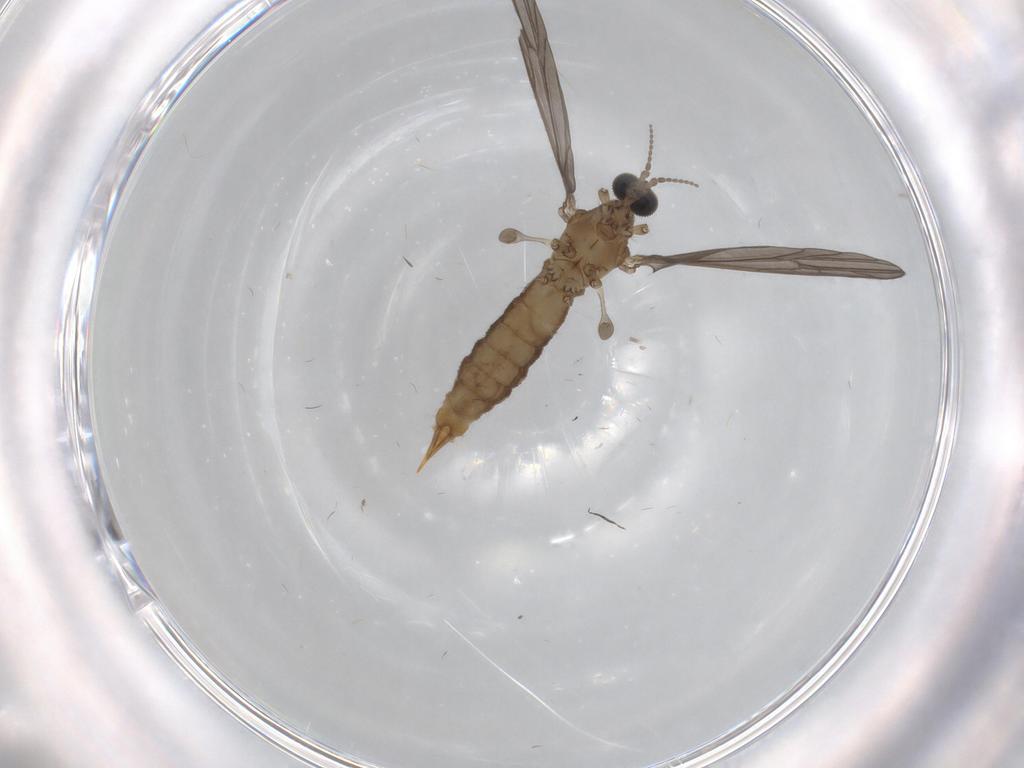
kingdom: Animalia
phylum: Arthropoda
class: Insecta
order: Diptera
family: Limoniidae
